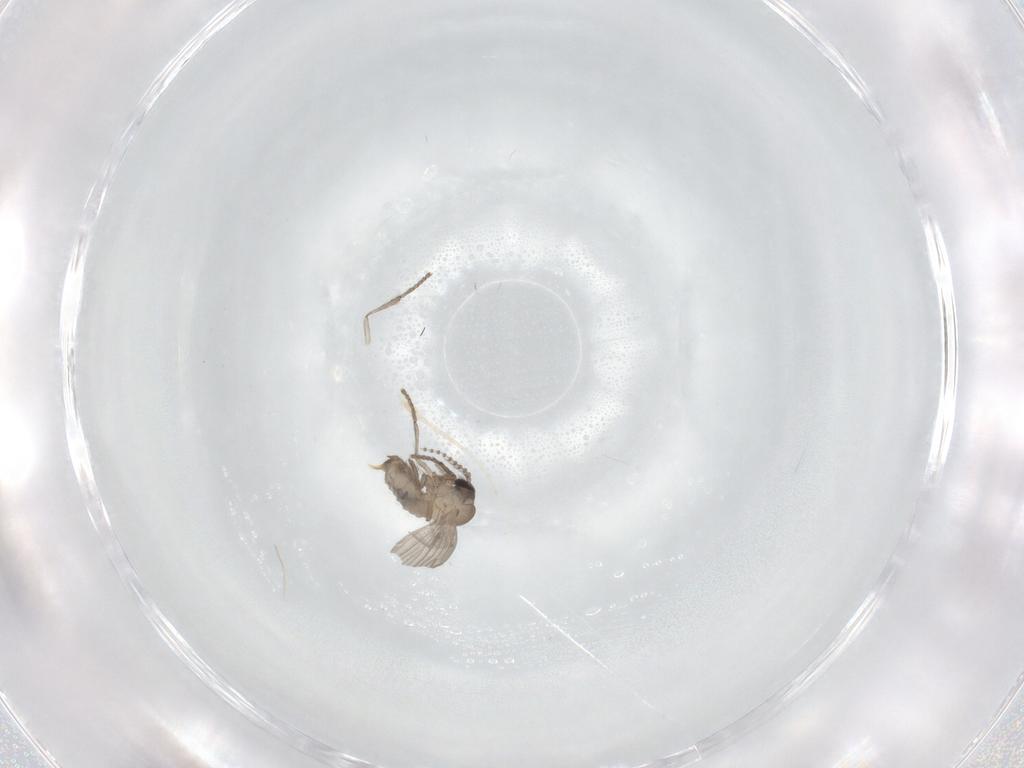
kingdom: Animalia
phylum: Arthropoda
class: Insecta
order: Diptera
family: Psychodidae
